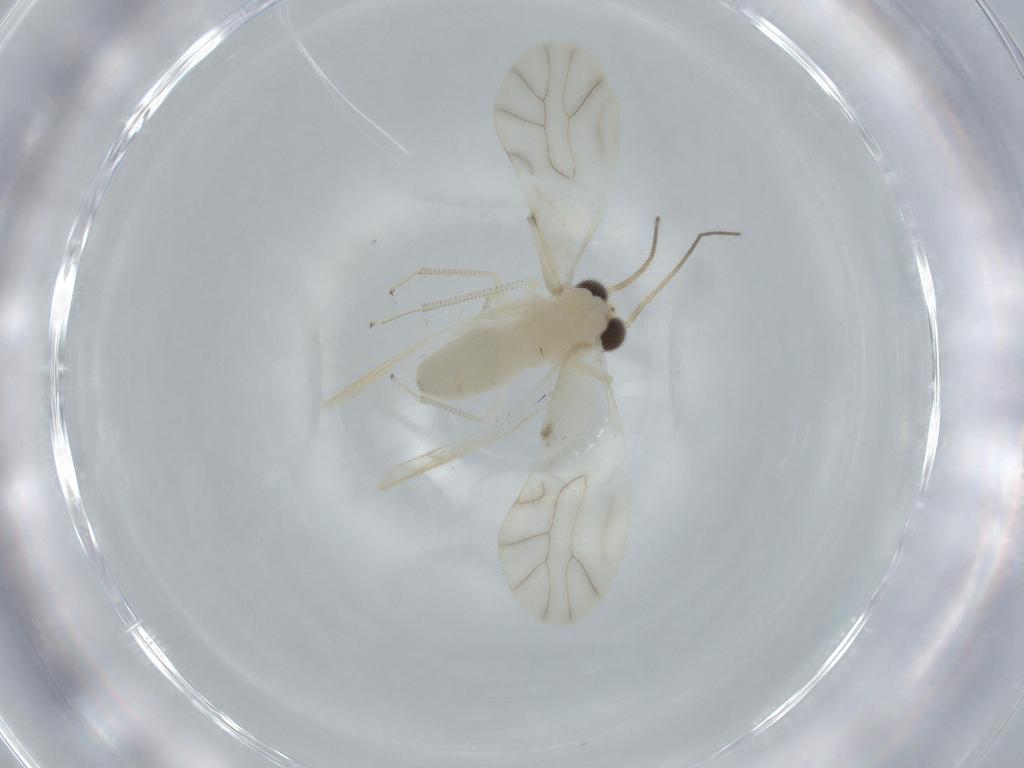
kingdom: Animalia
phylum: Arthropoda
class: Insecta
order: Psocodea
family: Caeciliusidae
